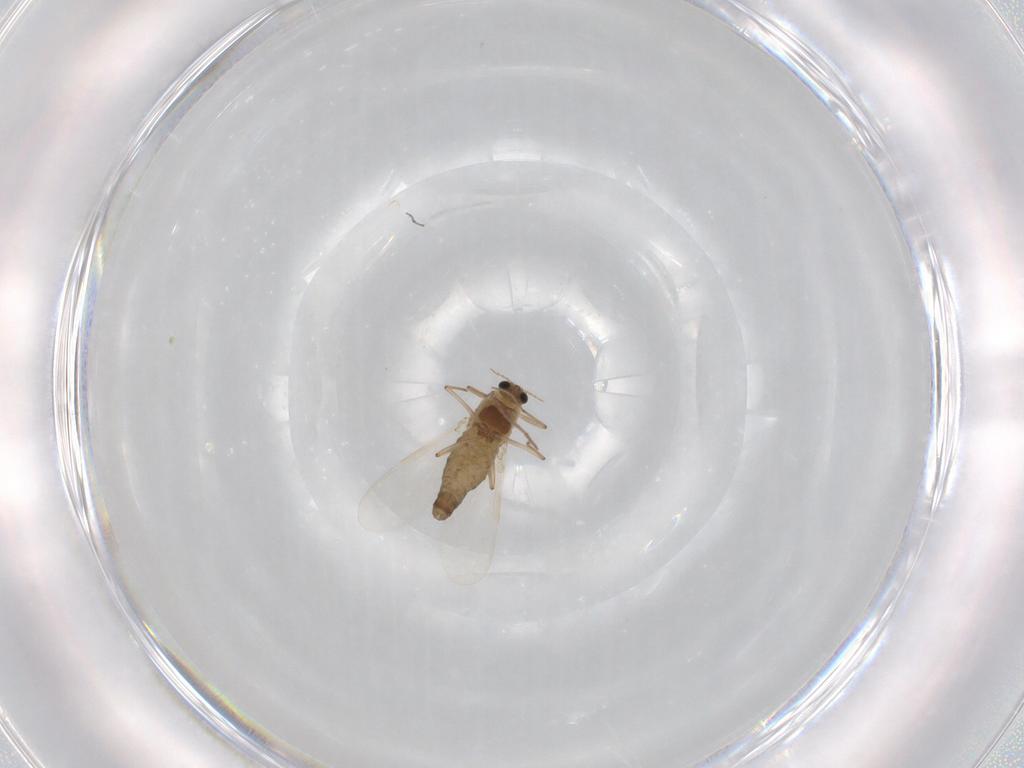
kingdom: Animalia
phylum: Arthropoda
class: Insecta
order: Diptera
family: Chironomidae
